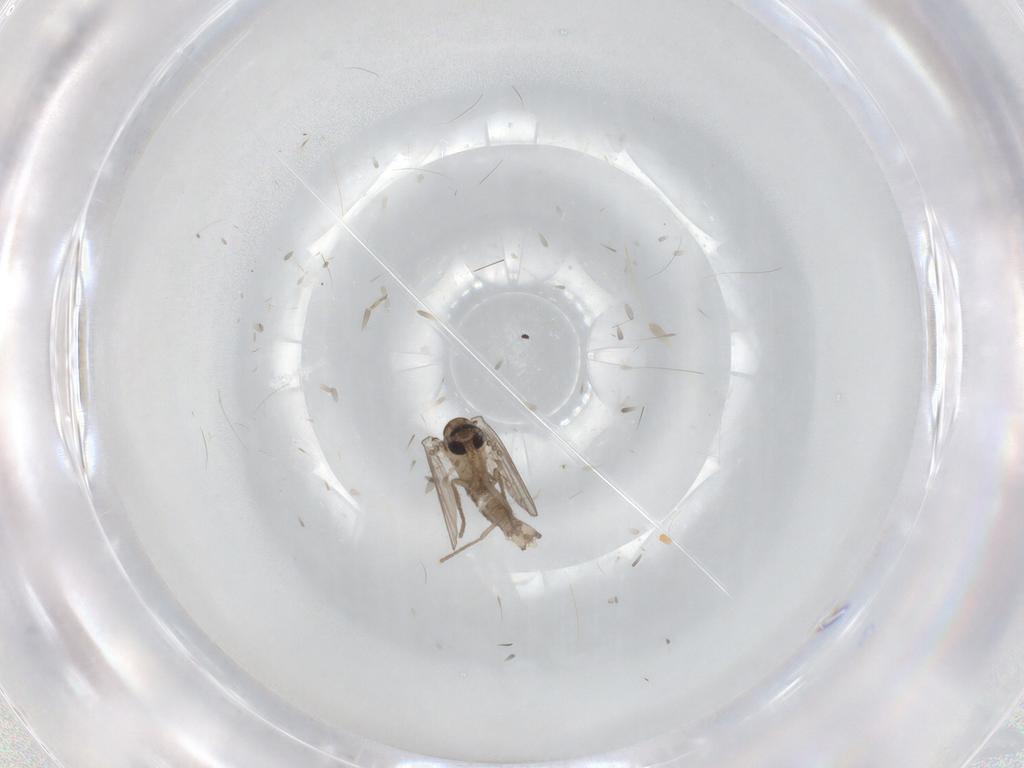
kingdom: Animalia
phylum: Arthropoda
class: Insecta
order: Diptera
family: Psychodidae
